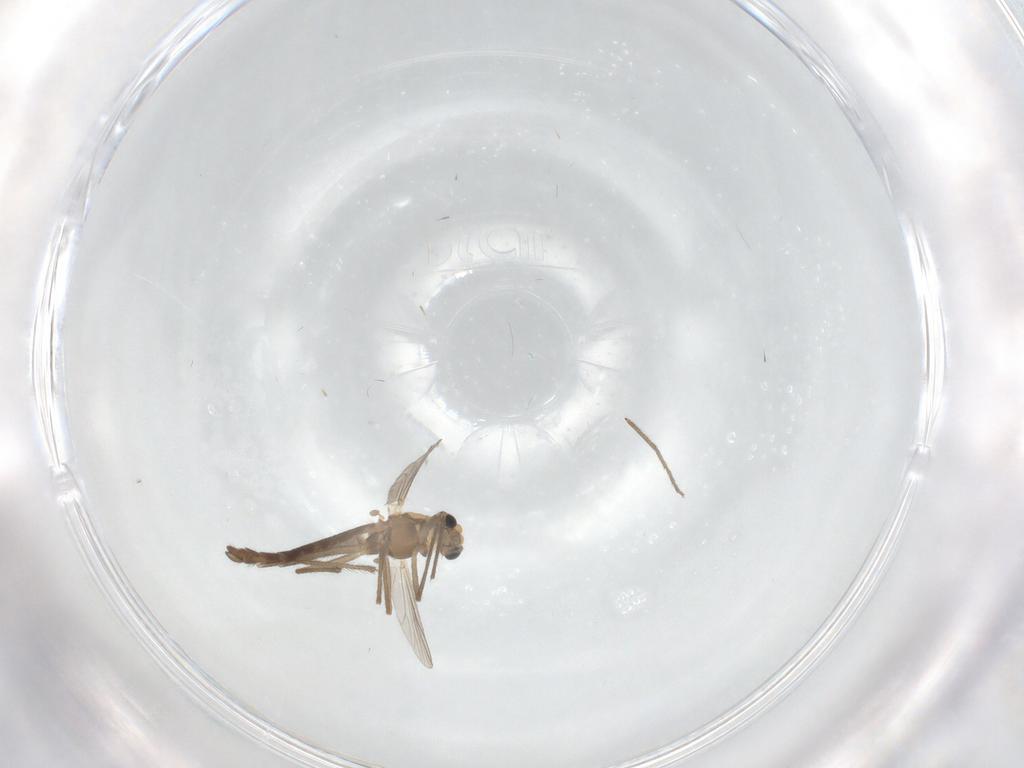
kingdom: Animalia
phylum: Arthropoda
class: Insecta
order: Diptera
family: Chironomidae
